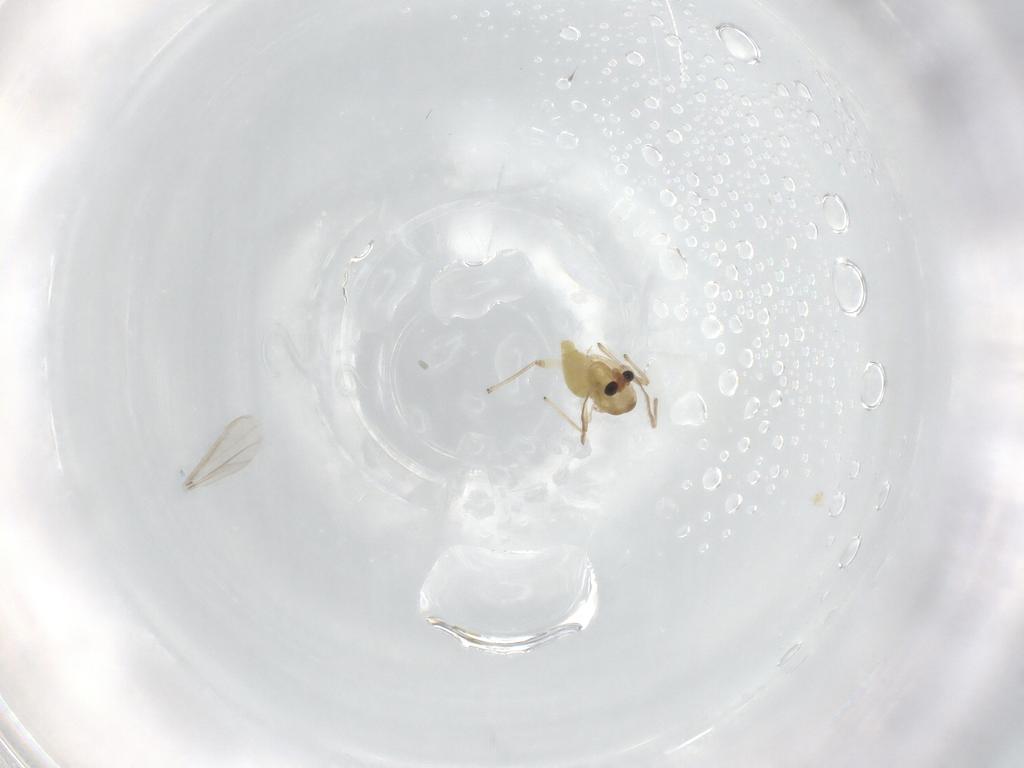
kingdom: Animalia
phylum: Arthropoda
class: Insecta
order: Diptera
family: Chironomidae
